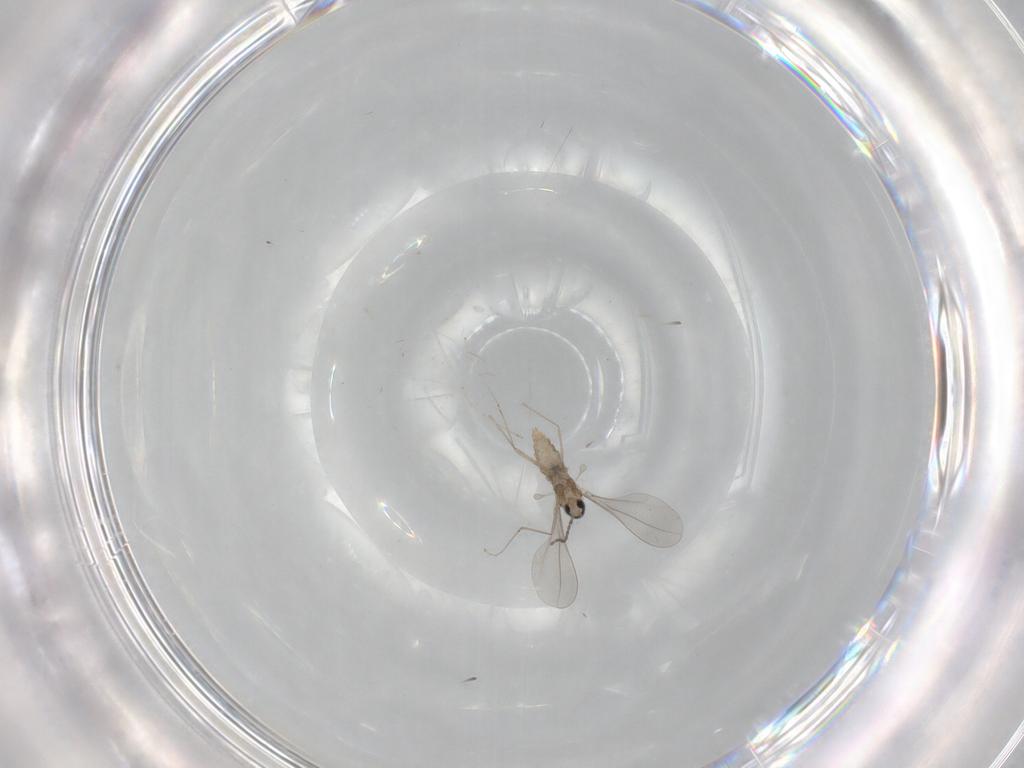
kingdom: Animalia
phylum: Arthropoda
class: Insecta
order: Diptera
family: Cecidomyiidae
